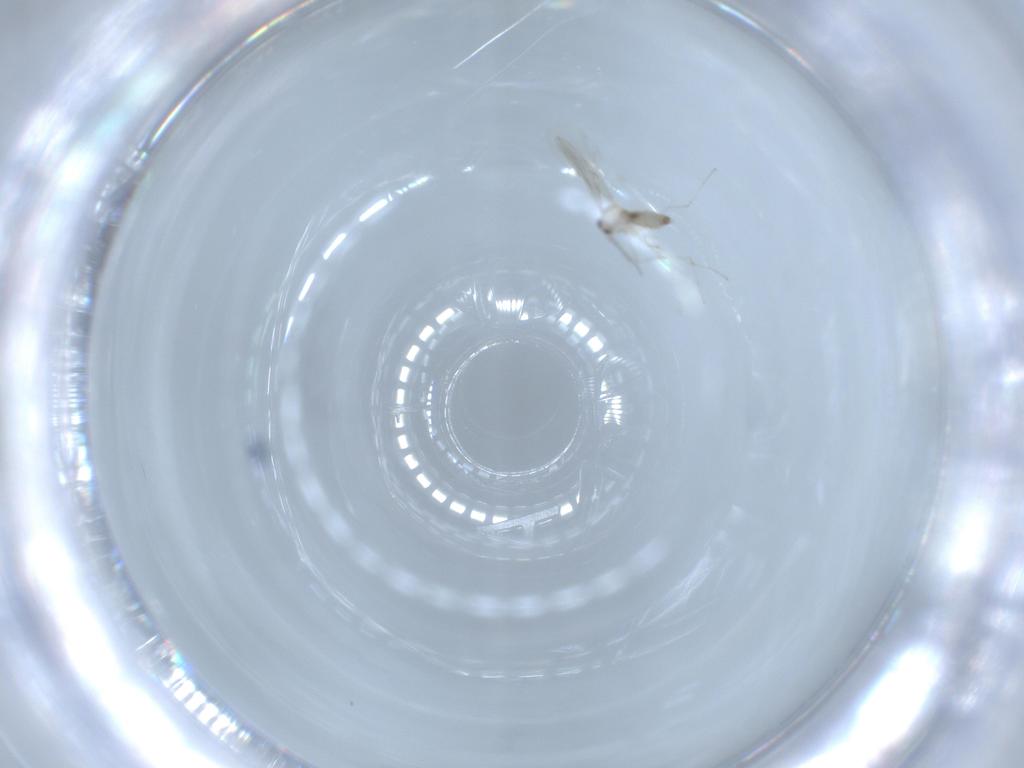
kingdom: Animalia
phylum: Arthropoda
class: Insecta
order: Diptera
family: Cecidomyiidae
